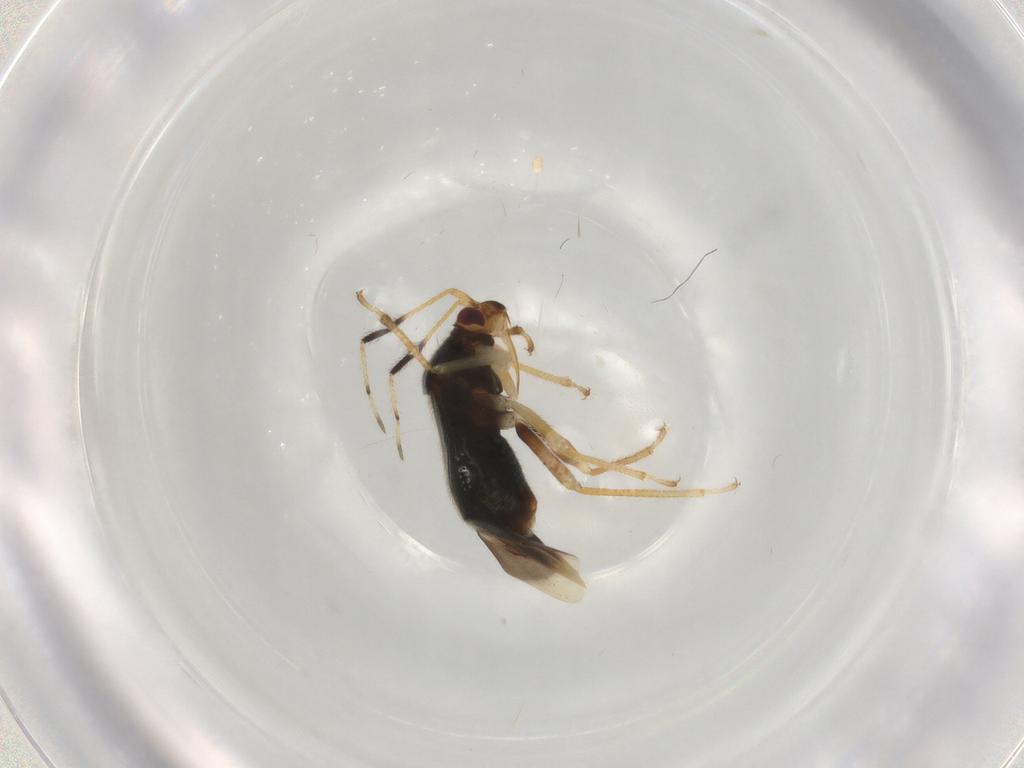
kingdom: Animalia
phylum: Arthropoda
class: Insecta
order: Hemiptera
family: Miridae
